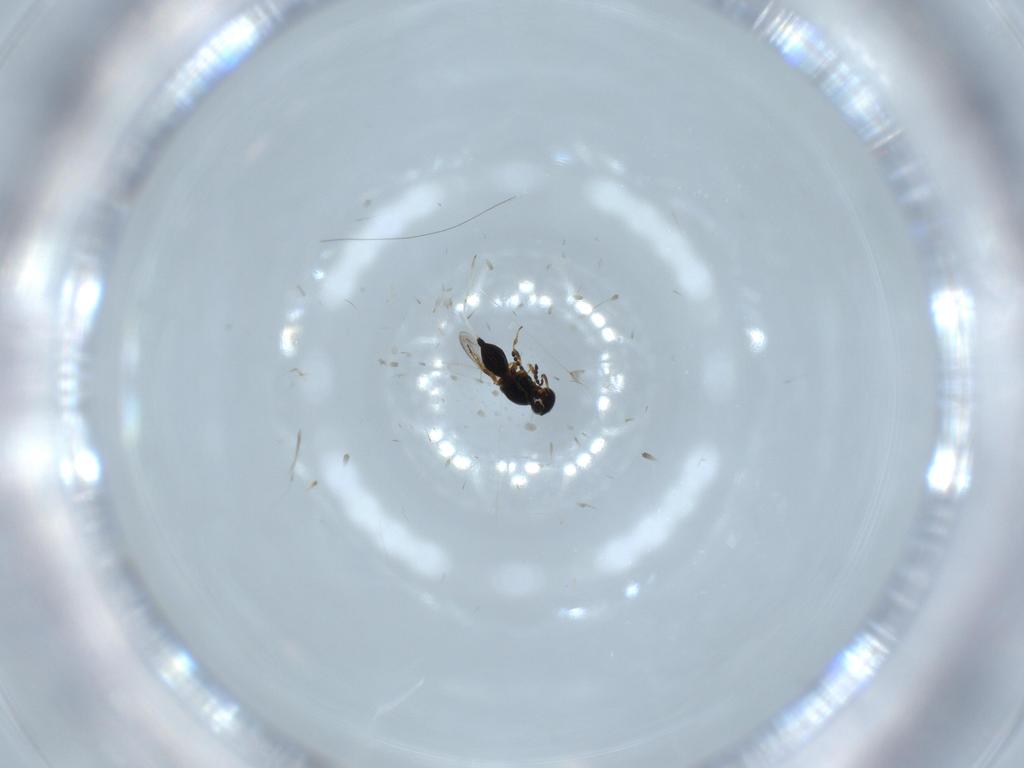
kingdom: Animalia
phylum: Arthropoda
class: Insecta
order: Hymenoptera
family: Platygastridae
